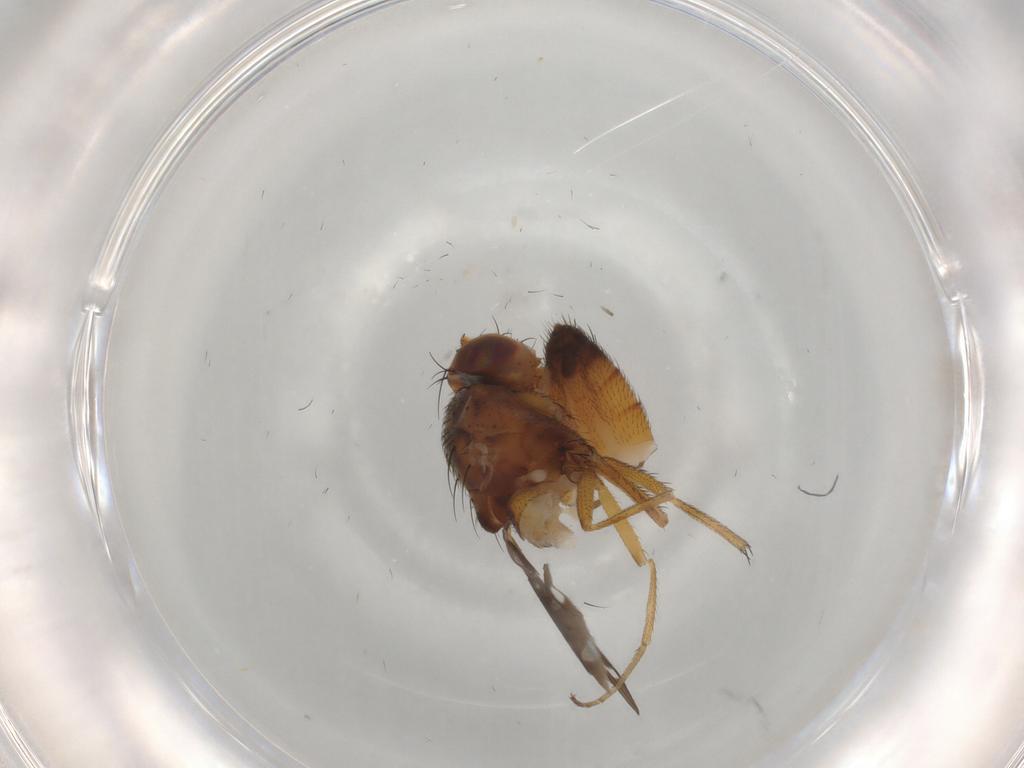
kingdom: Animalia
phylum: Arthropoda
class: Insecta
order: Diptera
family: Ephydridae
